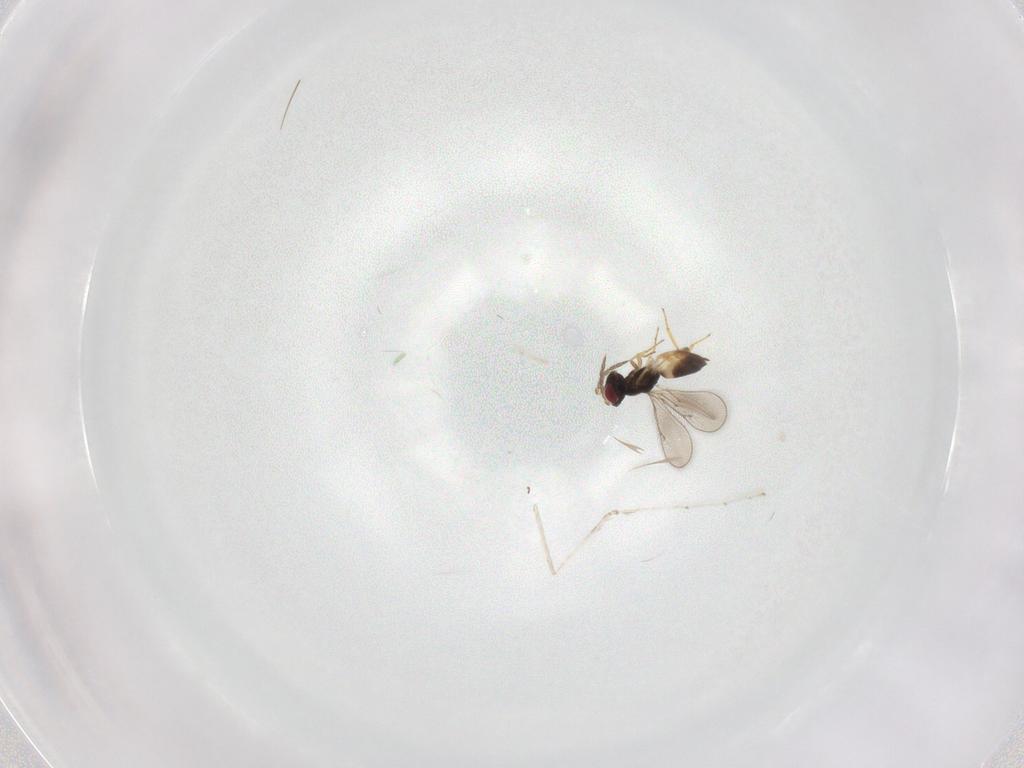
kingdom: Animalia
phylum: Arthropoda
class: Insecta
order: Hymenoptera
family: Eulophidae
